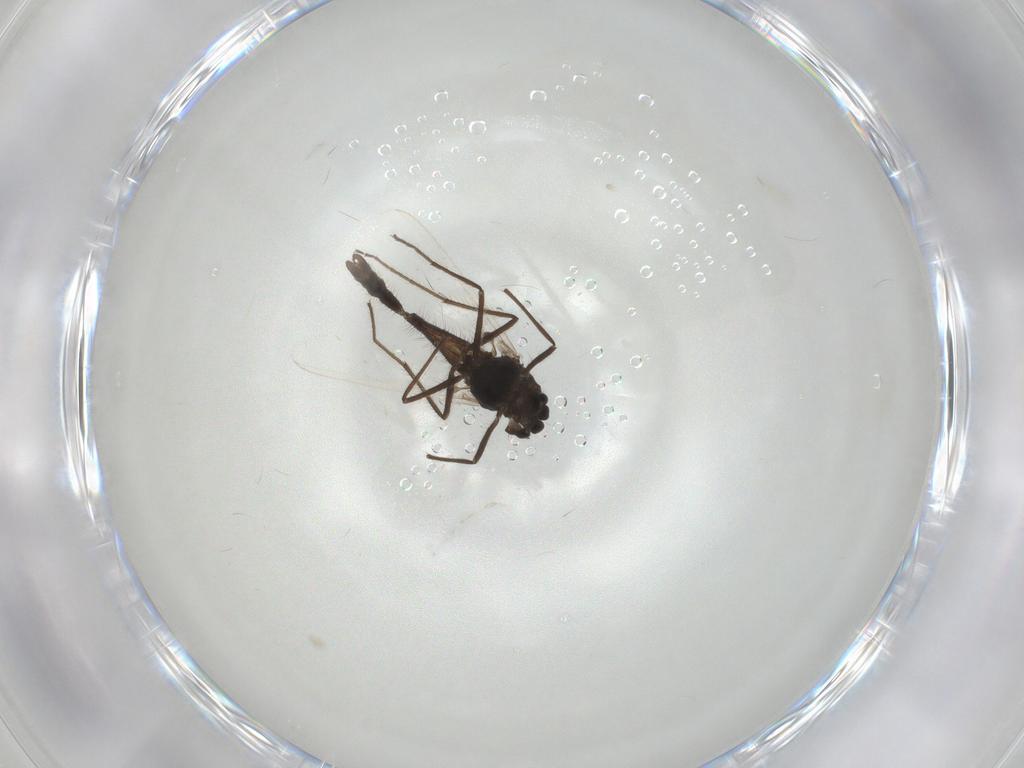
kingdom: Animalia
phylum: Arthropoda
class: Insecta
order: Diptera
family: Chironomidae
